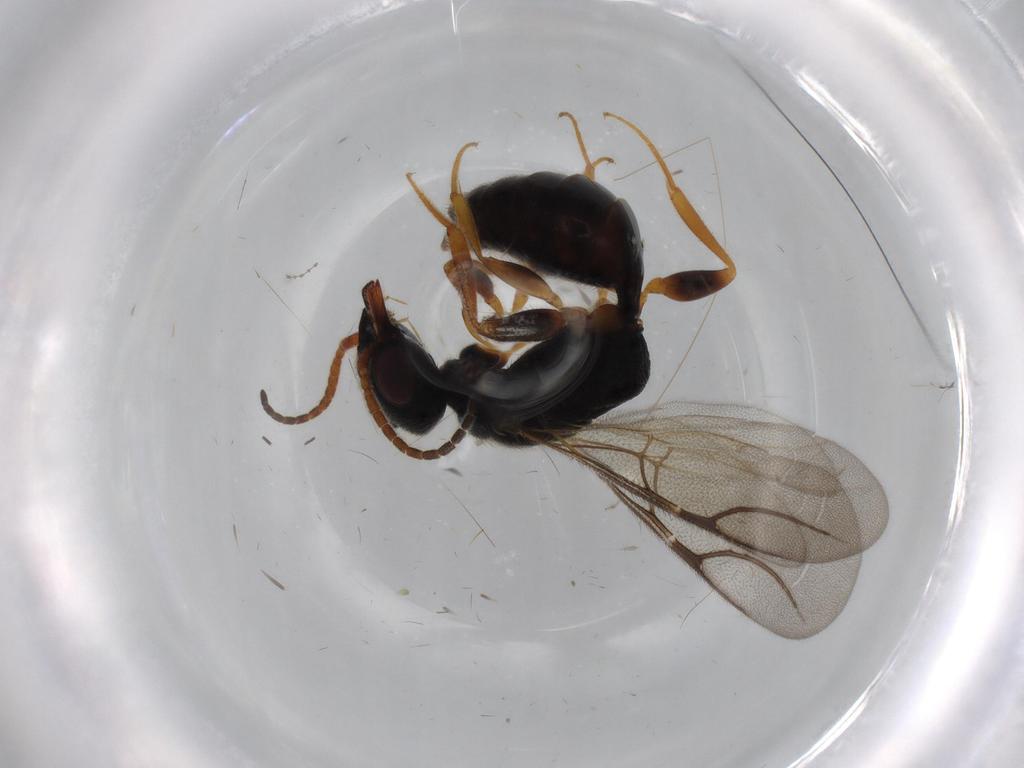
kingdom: Animalia
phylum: Arthropoda
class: Insecta
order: Hymenoptera
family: Bethylidae
